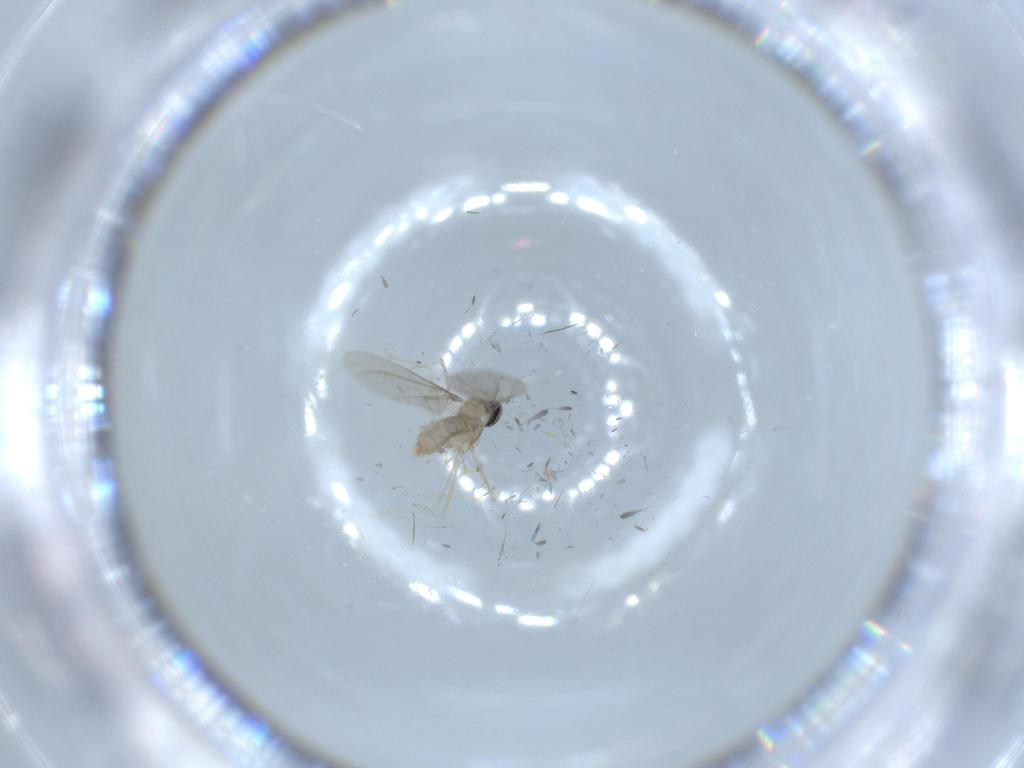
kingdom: Animalia
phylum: Arthropoda
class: Insecta
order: Diptera
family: Cecidomyiidae
